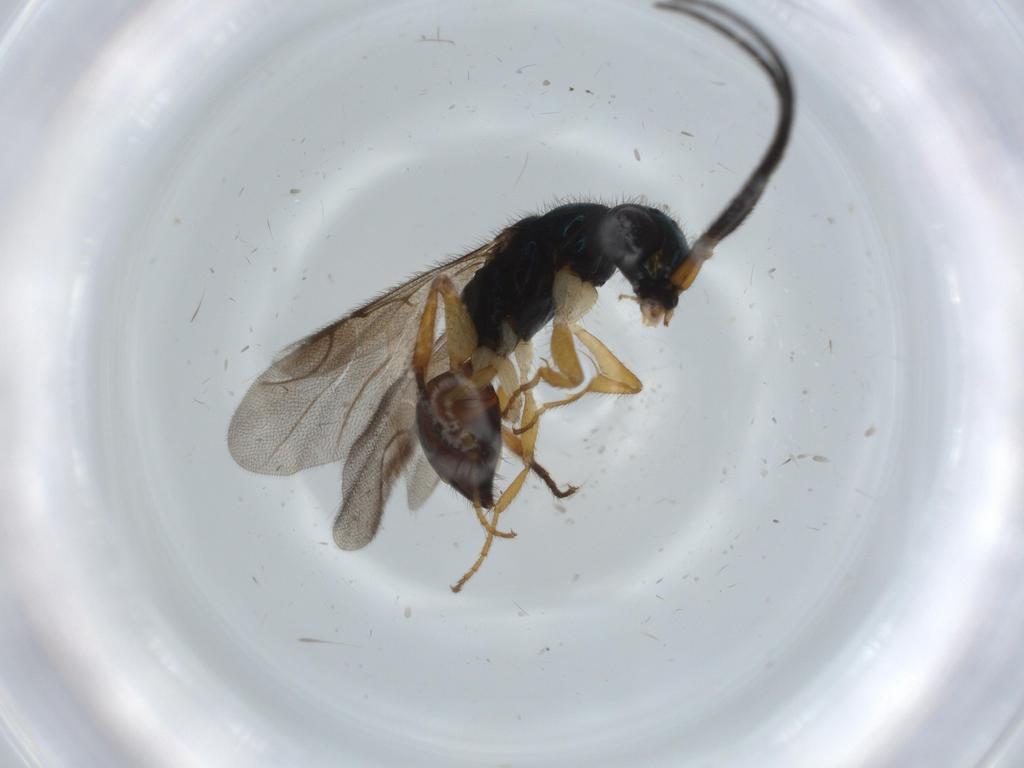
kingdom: Animalia
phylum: Arthropoda
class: Insecta
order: Hymenoptera
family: Chrysididae
